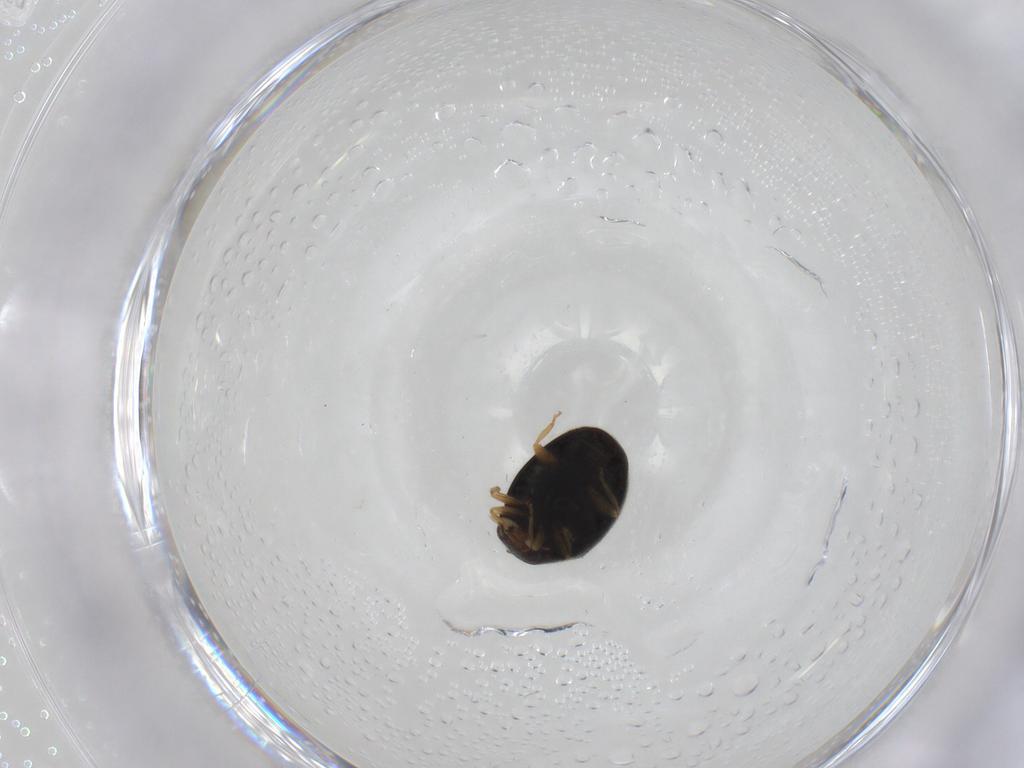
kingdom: Animalia
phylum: Arthropoda
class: Insecta
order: Coleoptera
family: Coccinellidae
